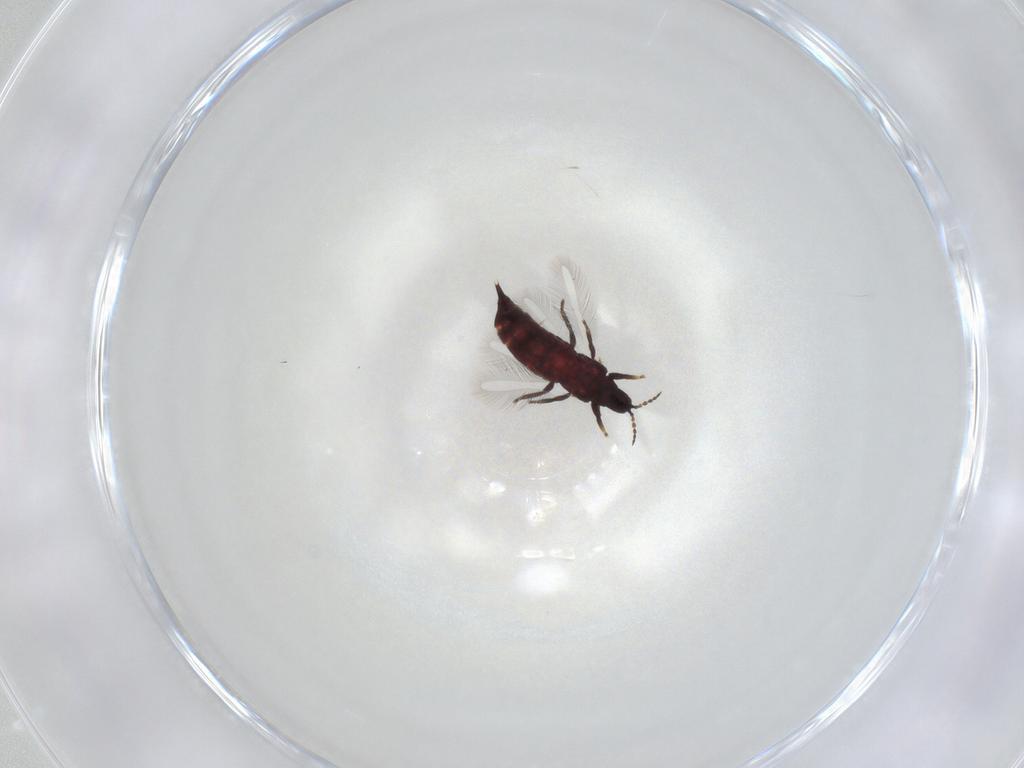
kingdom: Animalia
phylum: Arthropoda
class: Insecta
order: Thysanoptera
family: Phlaeothripidae
